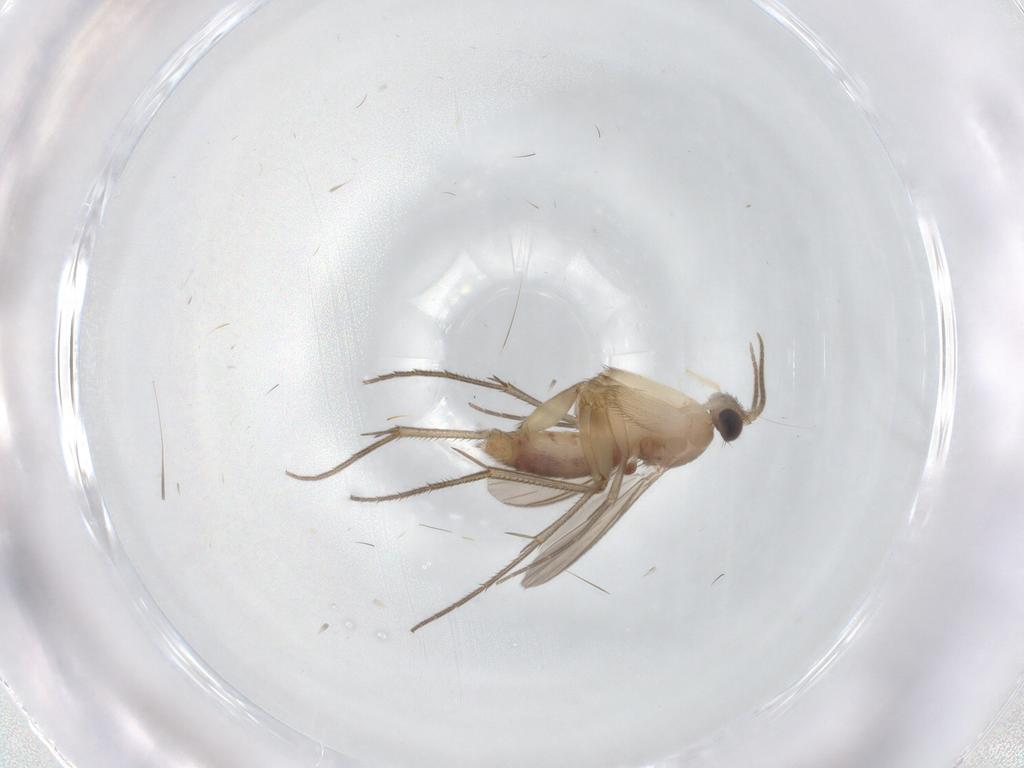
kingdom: Animalia
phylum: Arthropoda
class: Insecta
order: Diptera
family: Mycetophilidae
